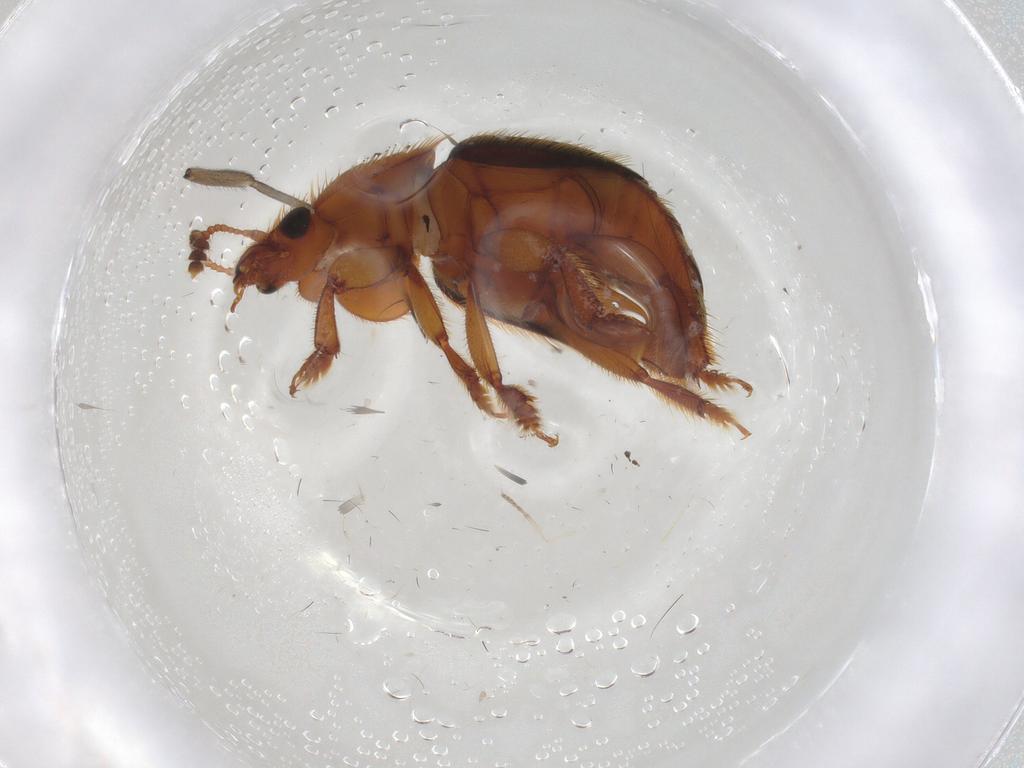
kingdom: Animalia
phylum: Arthropoda
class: Insecta
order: Coleoptera
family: Nitidulidae
